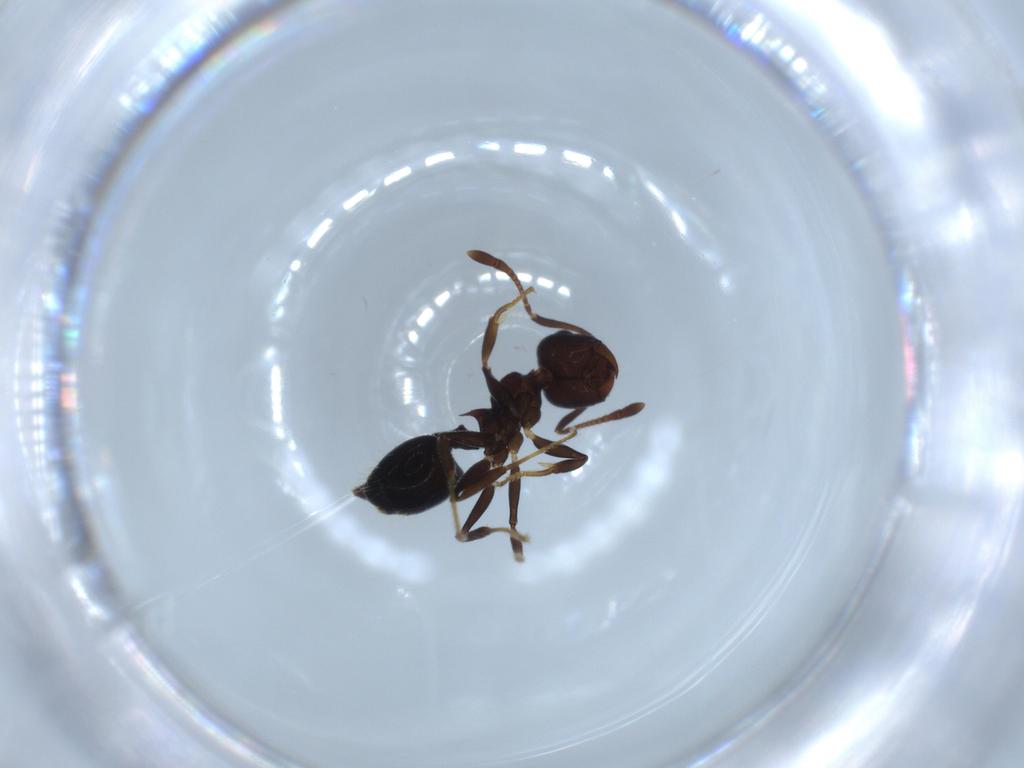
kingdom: Animalia
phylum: Arthropoda
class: Insecta
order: Hymenoptera
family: Formicidae
